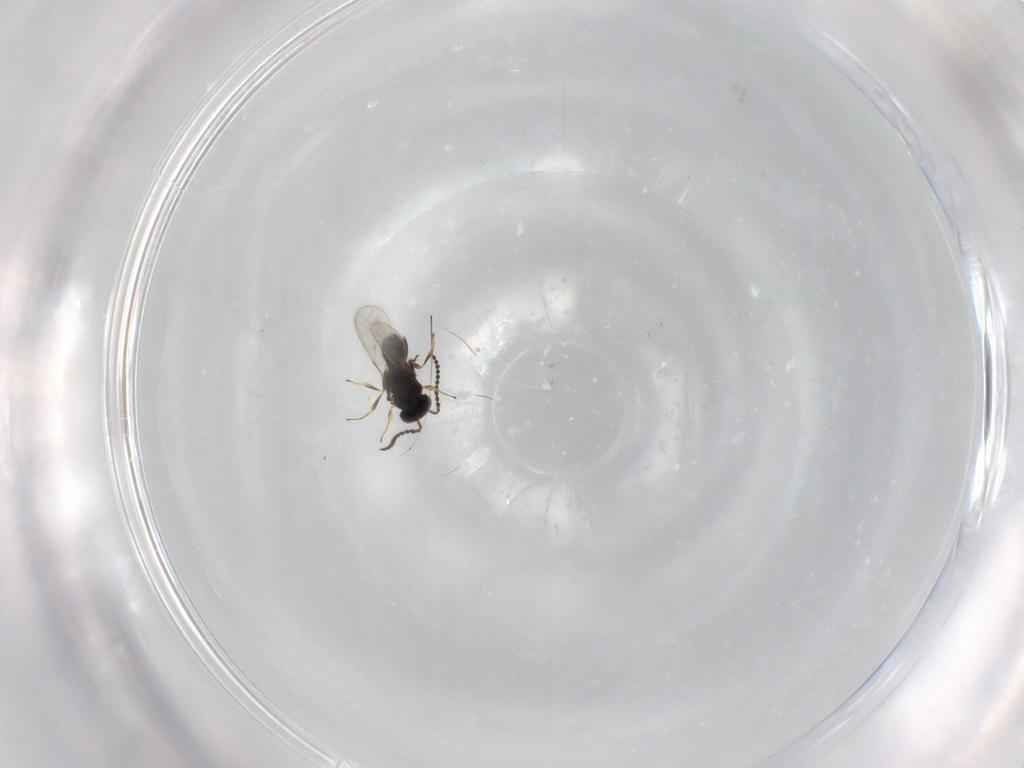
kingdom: Animalia
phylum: Arthropoda
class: Insecta
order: Hymenoptera
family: Scelionidae
